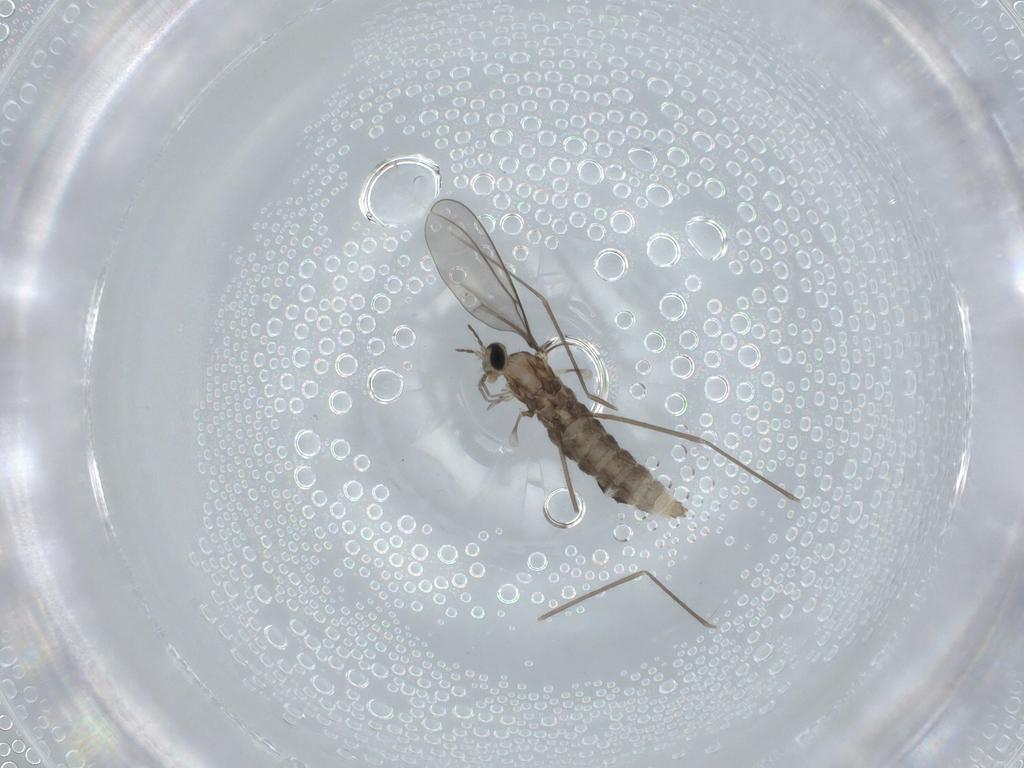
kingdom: Animalia
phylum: Arthropoda
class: Insecta
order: Diptera
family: Cecidomyiidae
